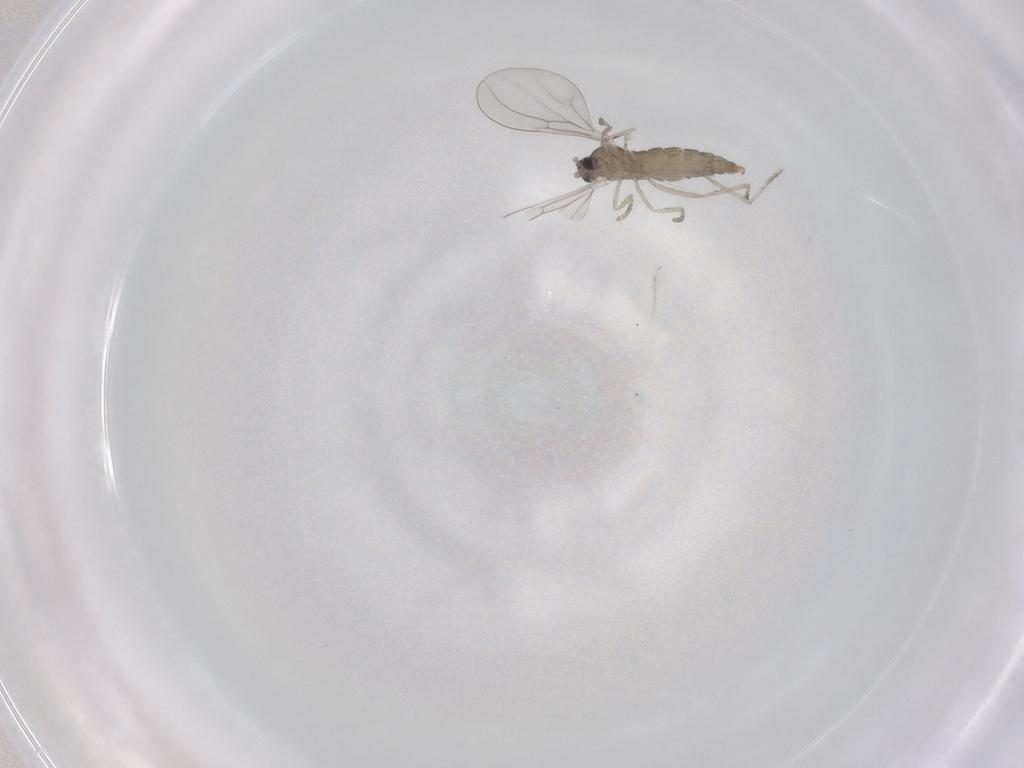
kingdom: Animalia
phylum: Arthropoda
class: Insecta
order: Diptera
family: Cecidomyiidae
